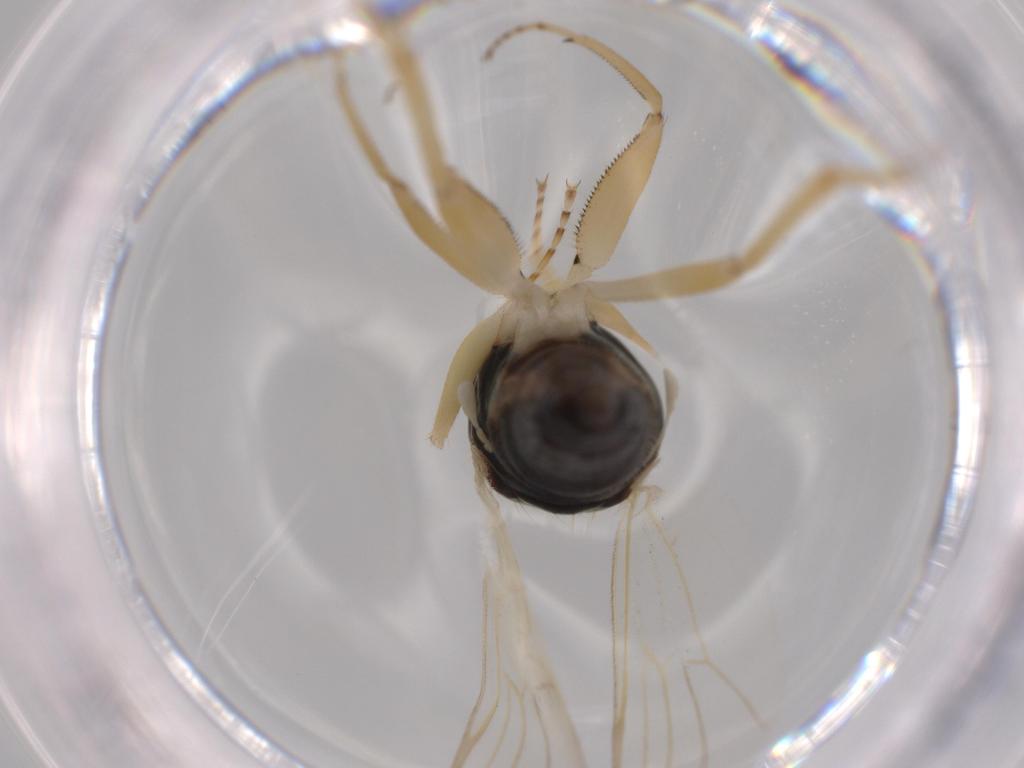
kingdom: Animalia
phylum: Arthropoda
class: Insecta
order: Diptera
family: Hybotidae
